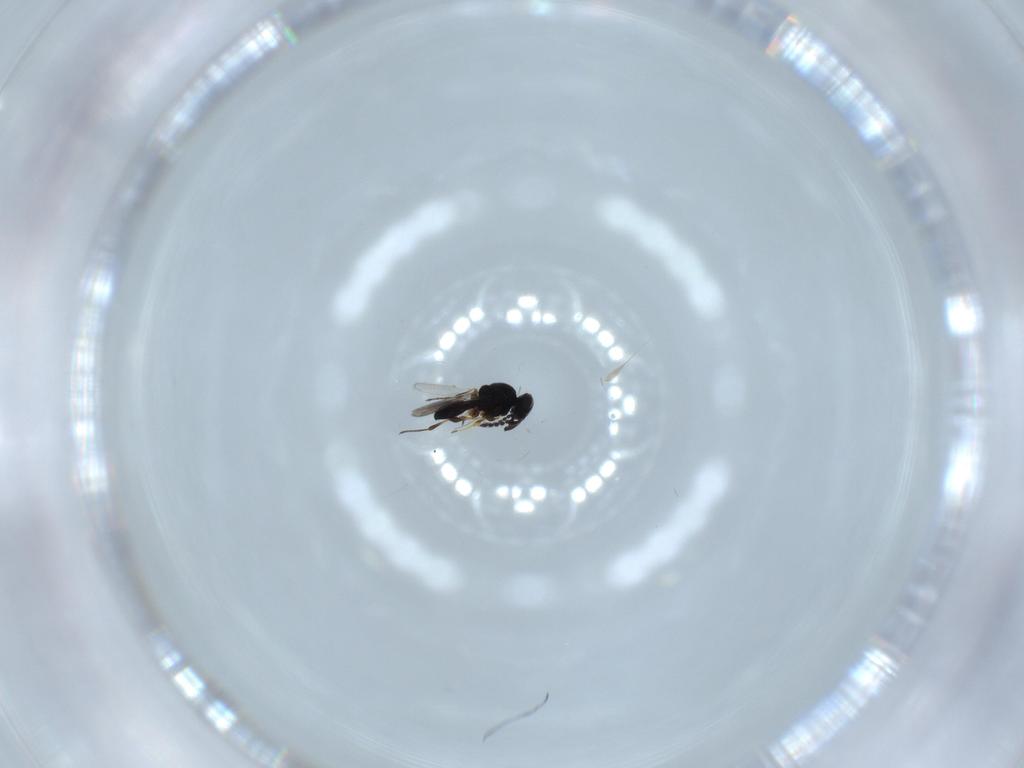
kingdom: Animalia
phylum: Arthropoda
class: Insecta
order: Hymenoptera
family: Platygastridae
